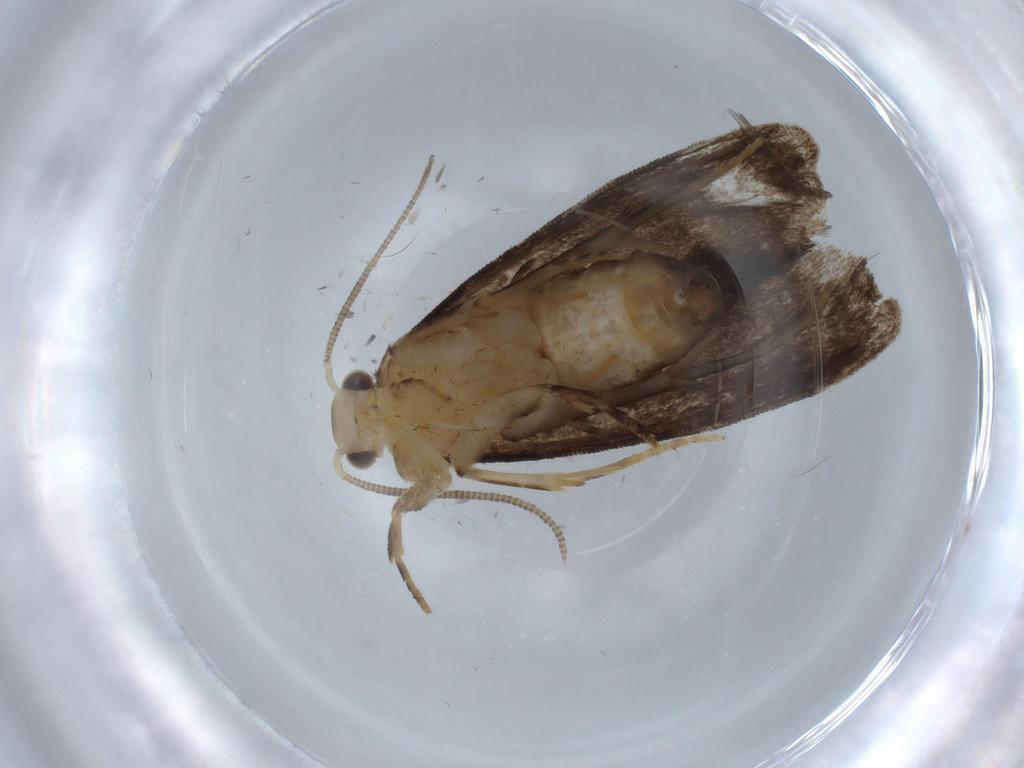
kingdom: Animalia
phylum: Arthropoda
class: Insecta
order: Lepidoptera
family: Dryadaulidae
